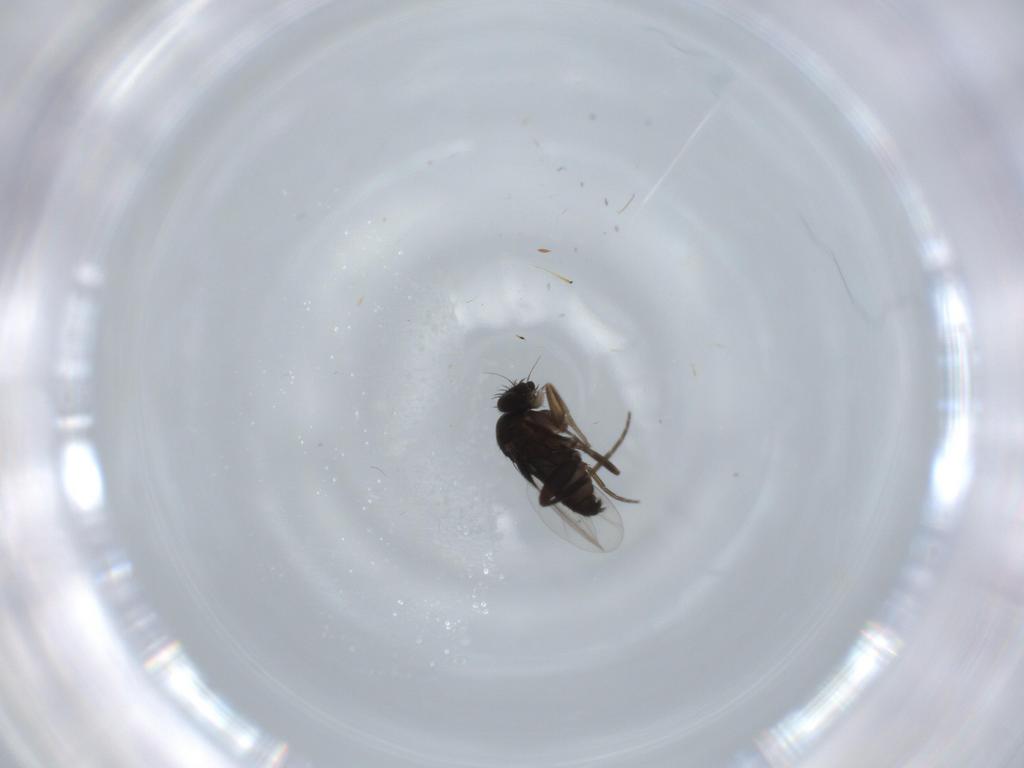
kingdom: Animalia
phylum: Arthropoda
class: Insecta
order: Diptera
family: Phoridae
